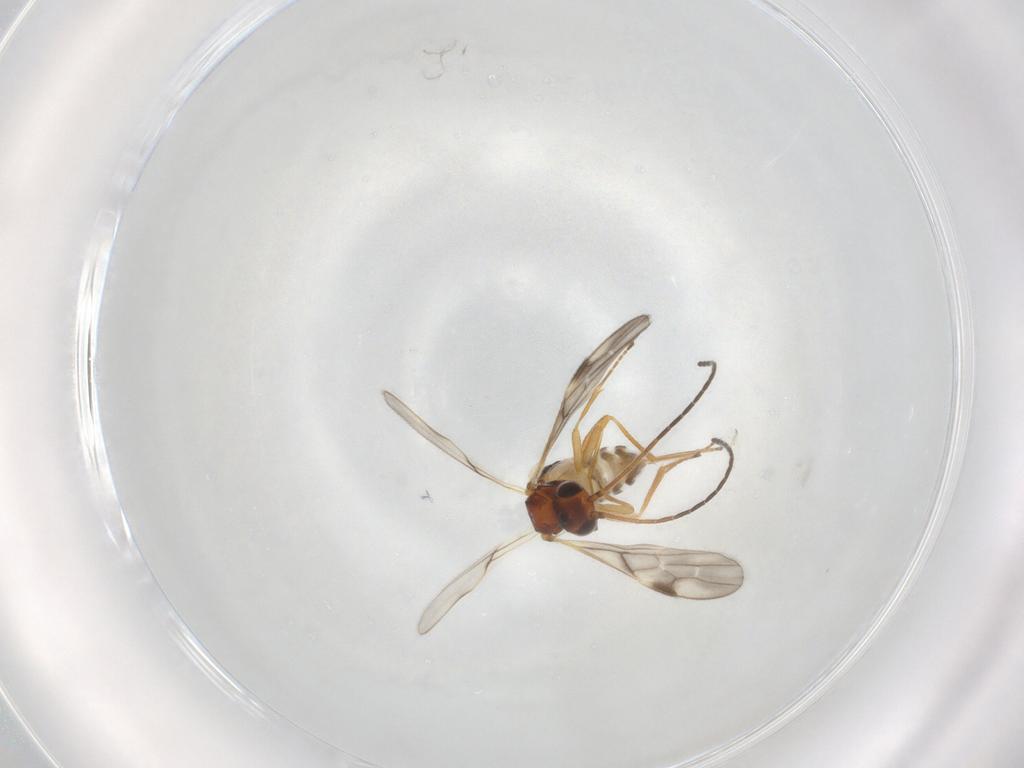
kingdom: Animalia
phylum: Arthropoda
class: Insecta
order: Hymenoptera
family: Braconidae
